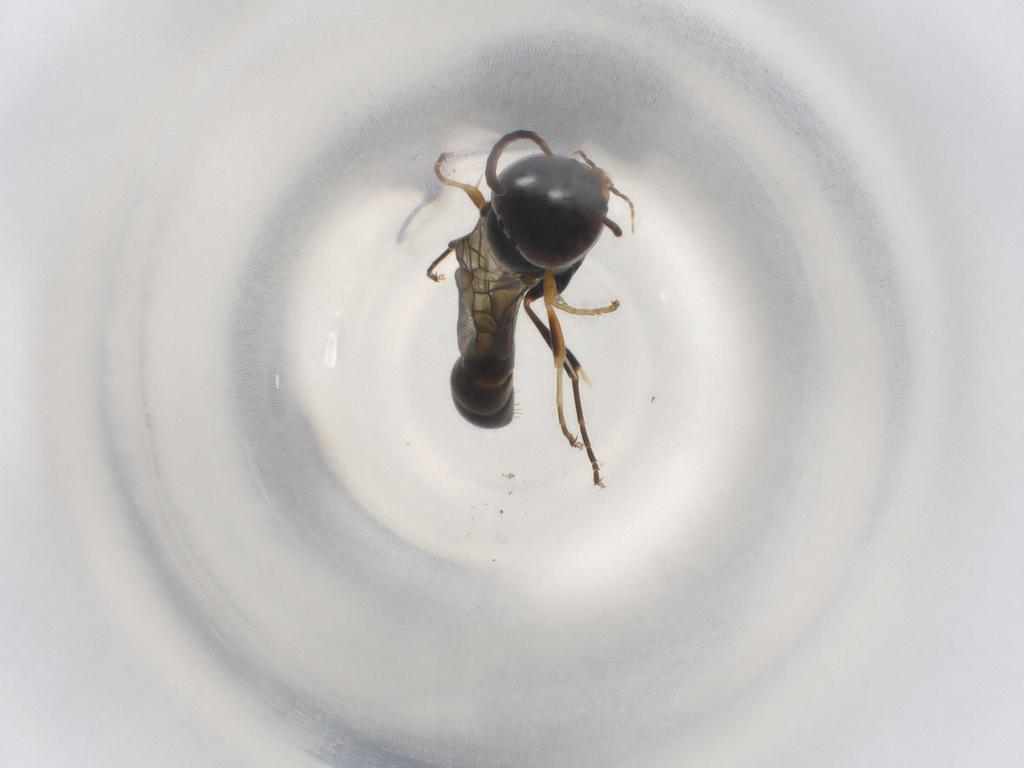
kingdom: Animalia
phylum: Arthropoda
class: Insecta
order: Hymenoptera
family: Crabronidae
